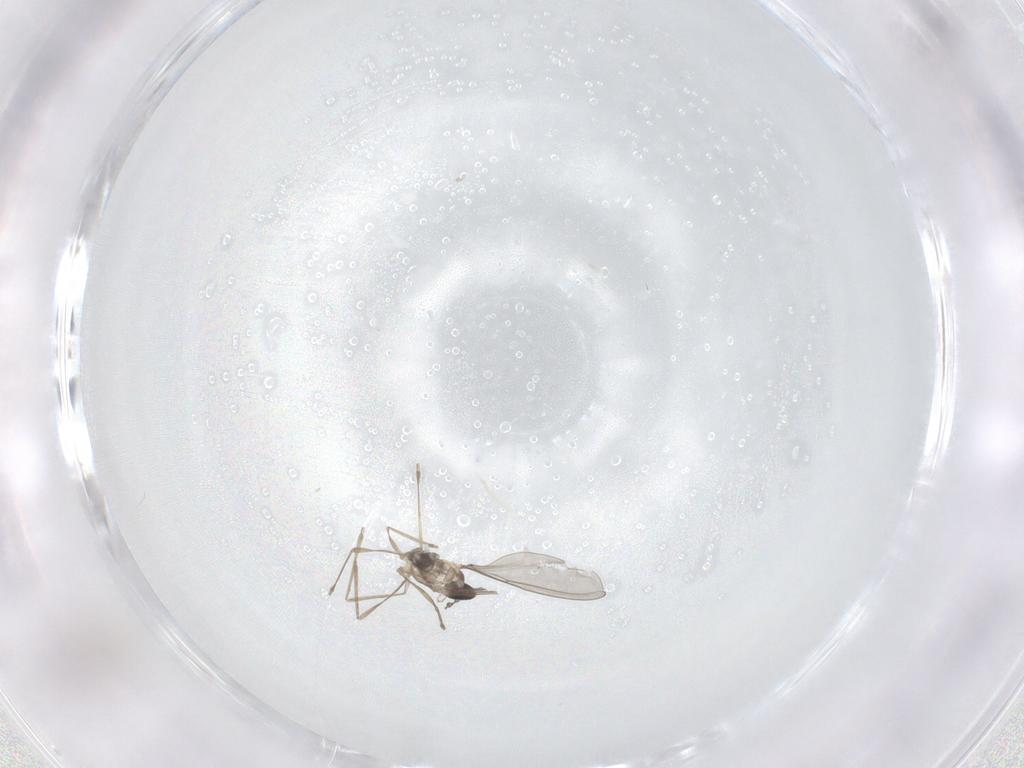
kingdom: Animalia
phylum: Arthropoda
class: Insecta
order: Diptera
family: Cecidomyiidae
